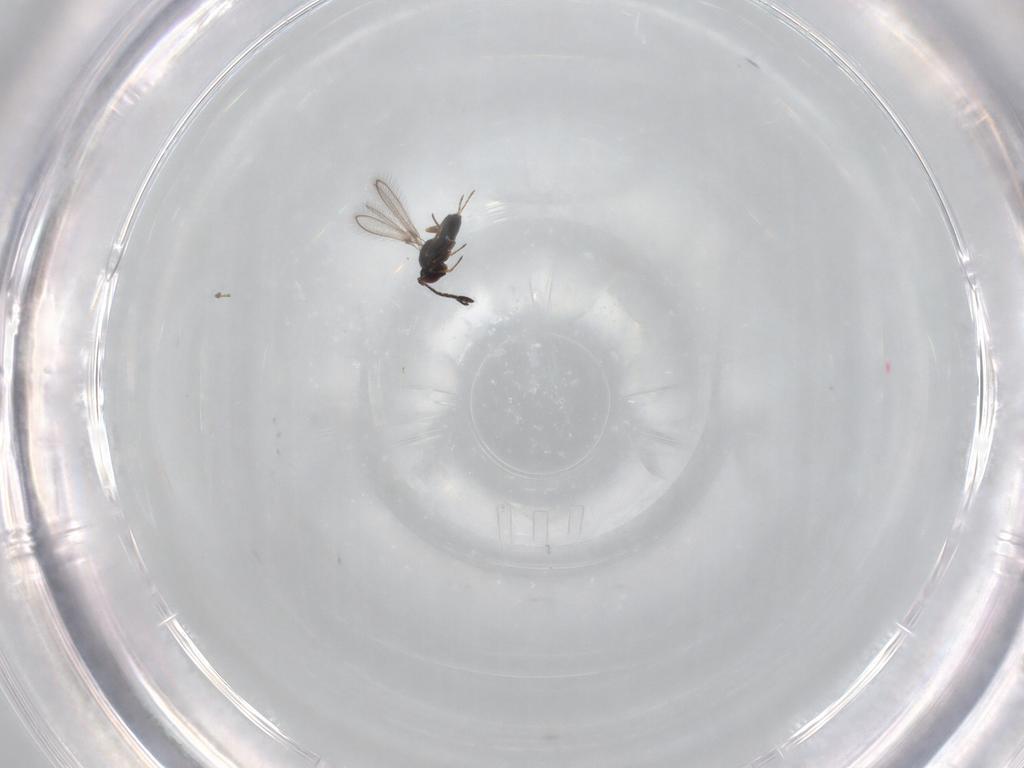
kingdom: Animalia
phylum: Arthropoda
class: Insecta
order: Hymenoptera
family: Mymaridae
